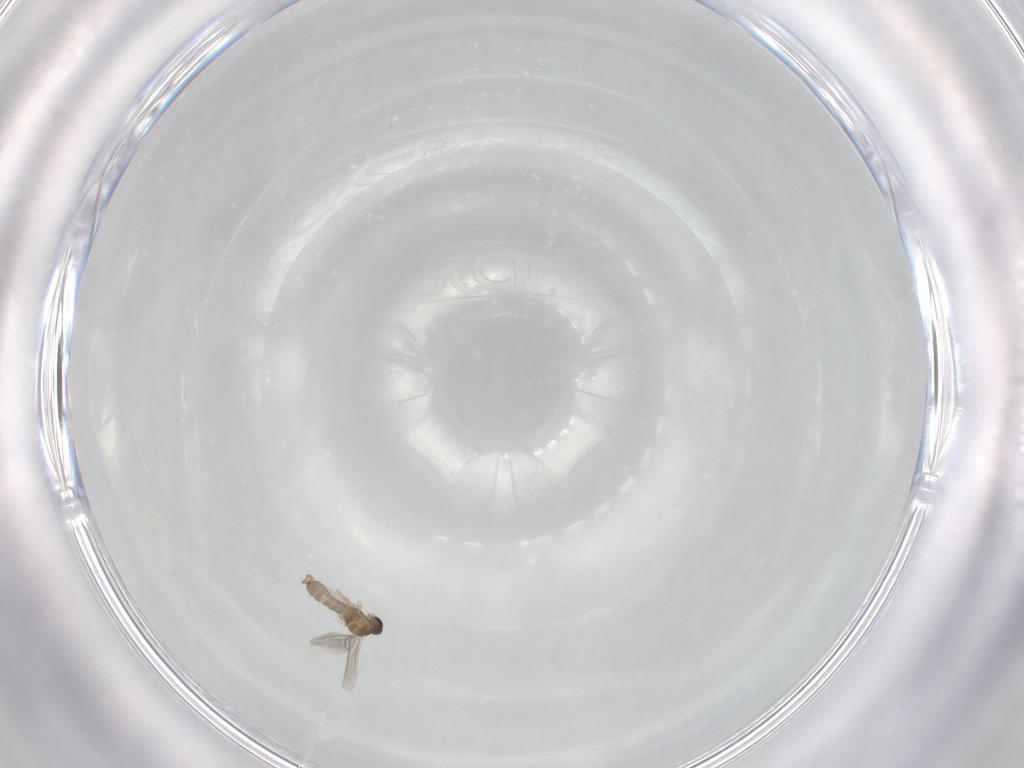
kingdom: Animalia
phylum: Arthropoda
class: Insecta
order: Diptera
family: Cecidomyiidae
